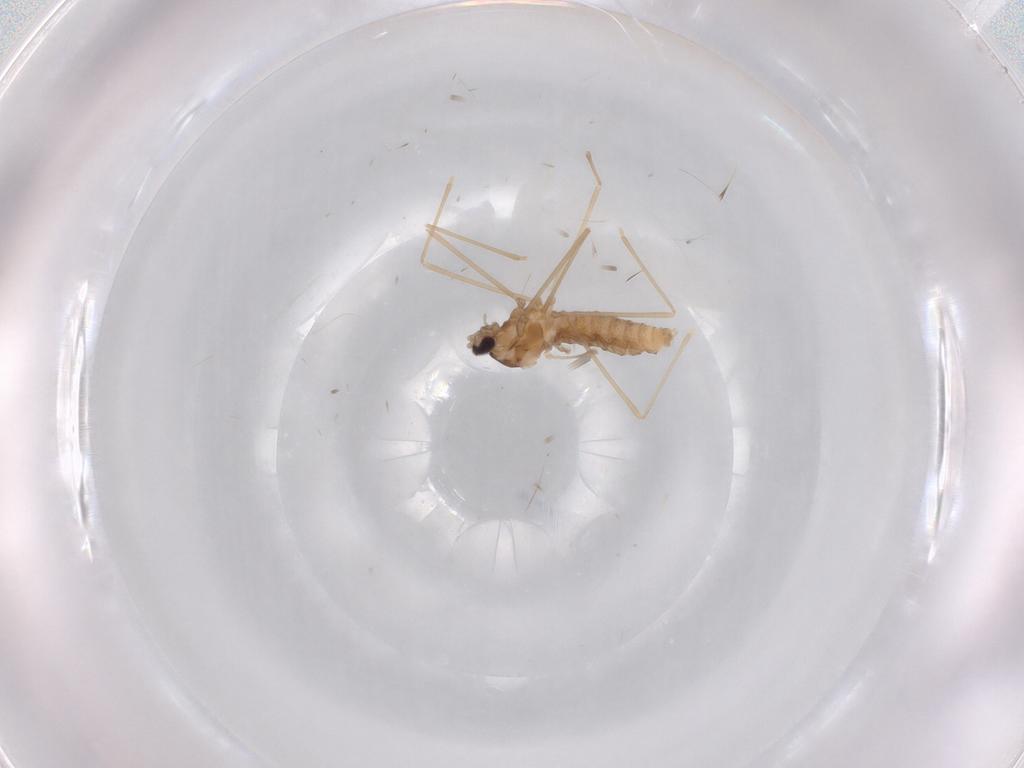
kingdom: Animalia
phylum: Arthropoda
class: Insecta
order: Diptera
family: Cecidomyiidae
